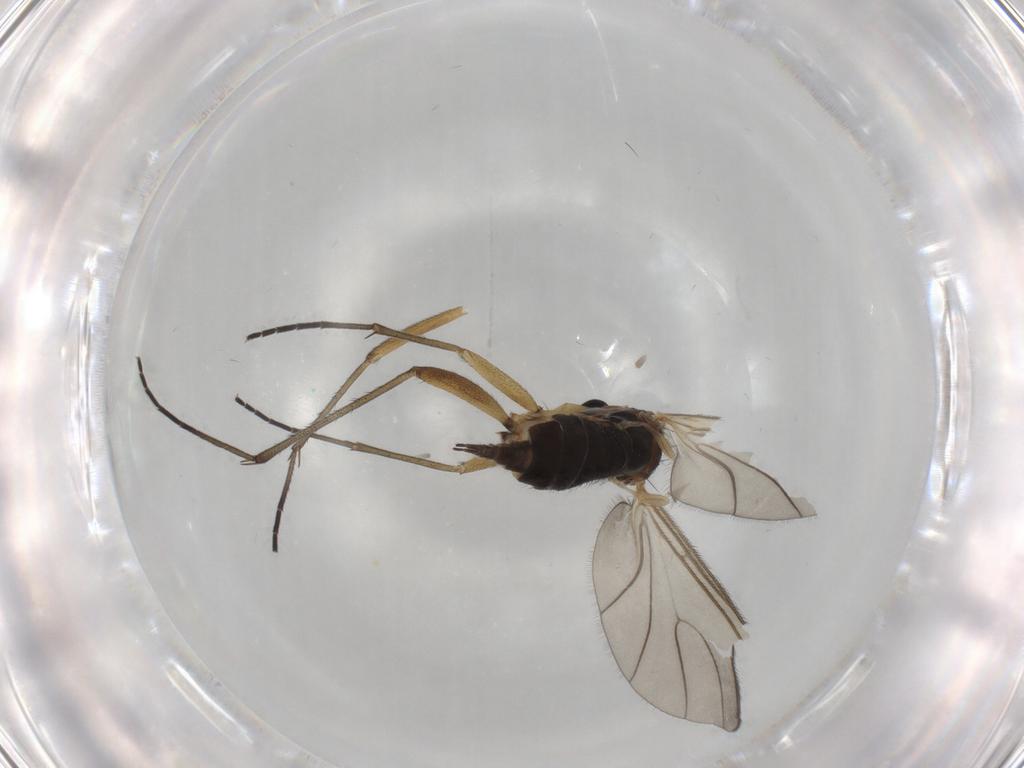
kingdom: Animalia
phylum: Arthropoda
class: Insecta
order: Diptera
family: Sciaridae
